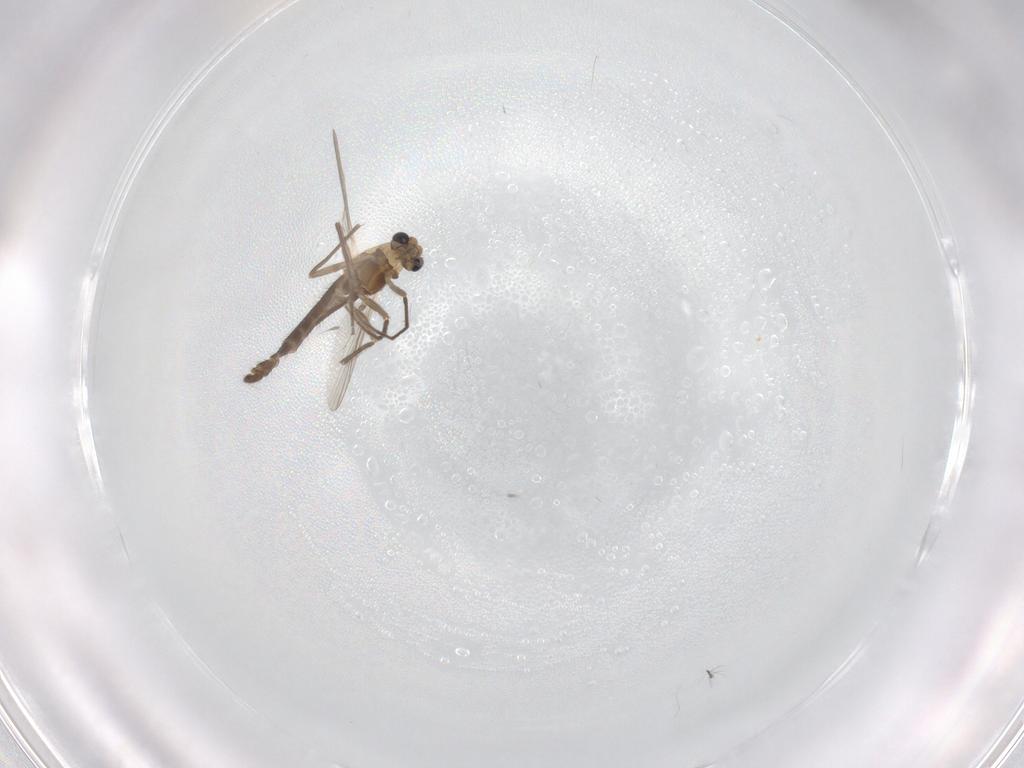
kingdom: Animalia
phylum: Arthropoda
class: Insecta
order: Diptera
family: Chironomidae
